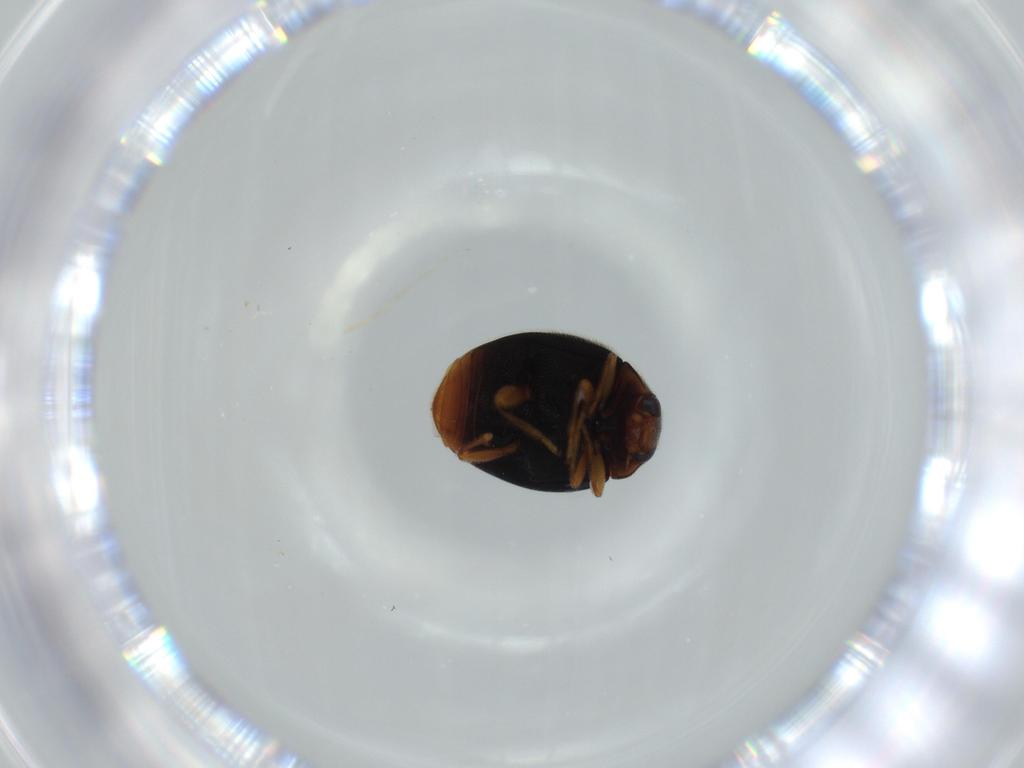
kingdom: Animalia
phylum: Arthropoda
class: Insecta
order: Coleoptera
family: Coccinellidae
